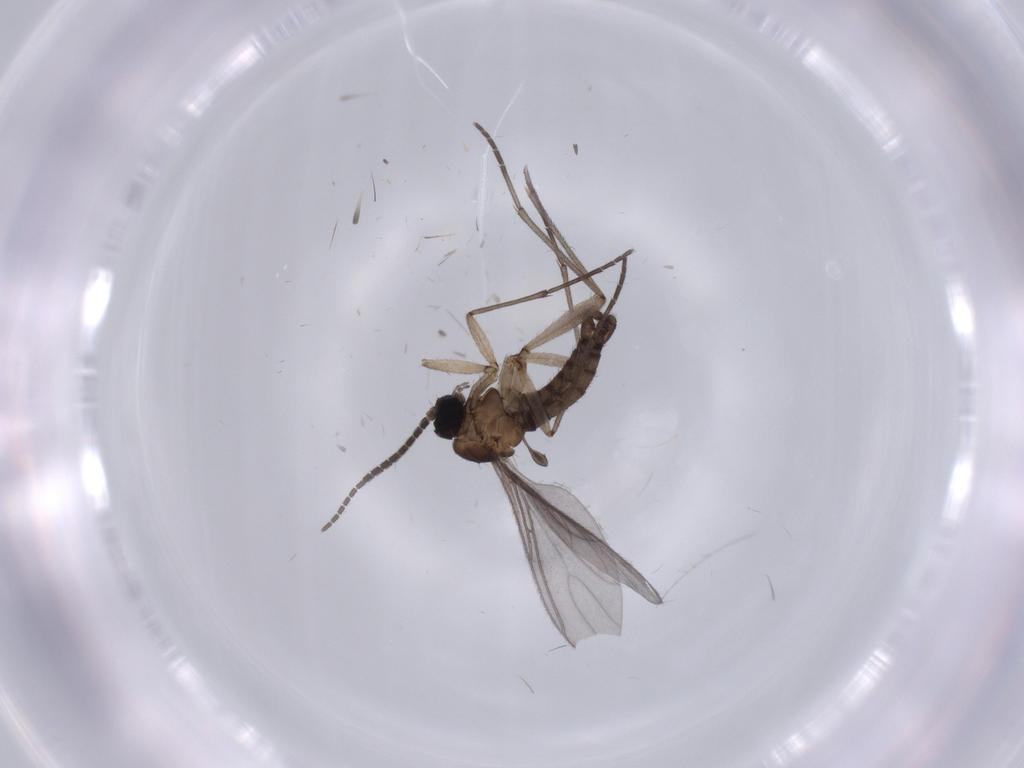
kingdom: Animalia
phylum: Arthropoda
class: Insecta
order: Diptera
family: Sciaridae
